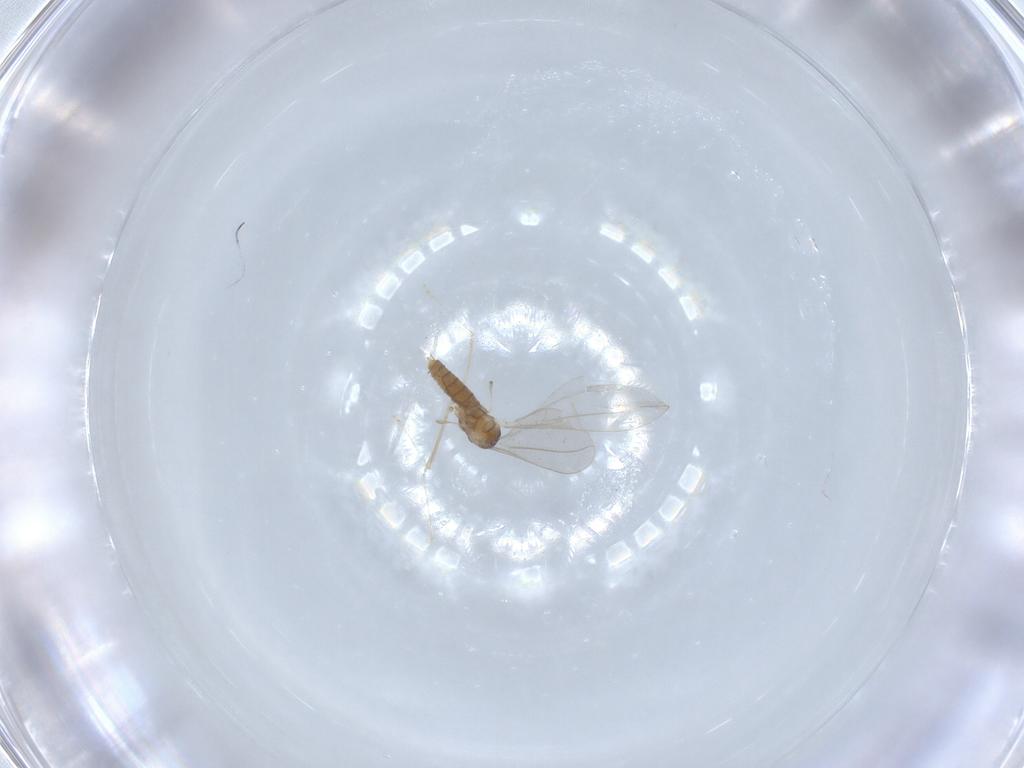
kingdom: Animalia
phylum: Arthropoda
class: Insecta
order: Diptera
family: Cecidomyiidae
